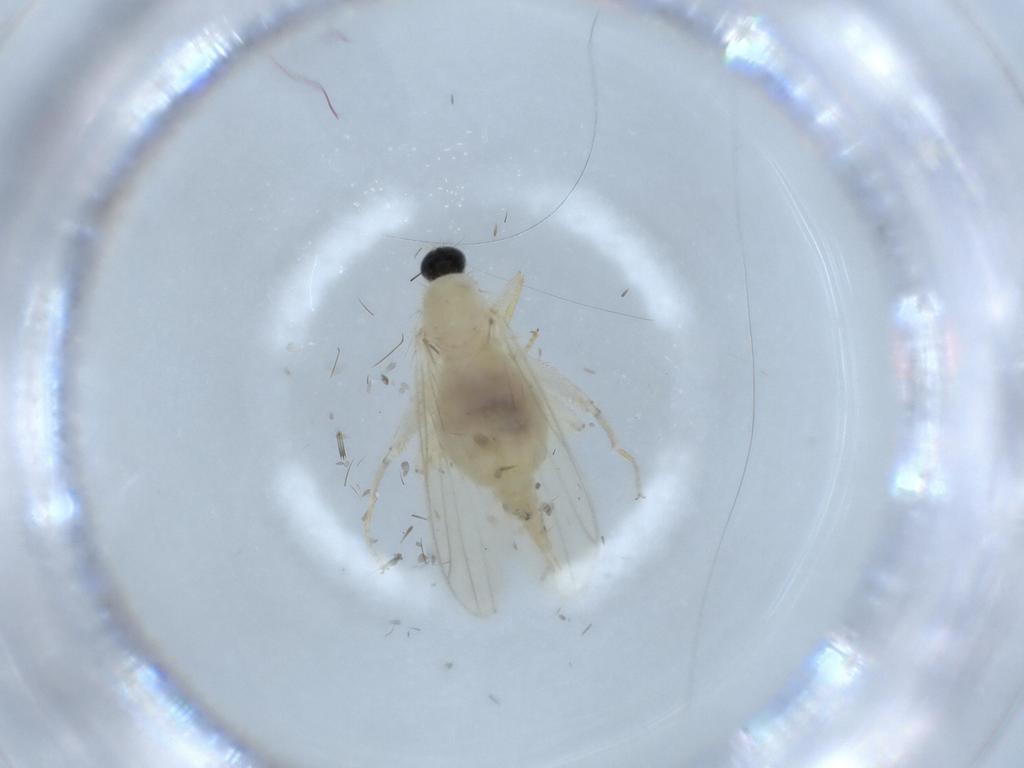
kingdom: Animalia
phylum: Arthropoda
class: Insecta
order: Diptera
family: Hybotidae
